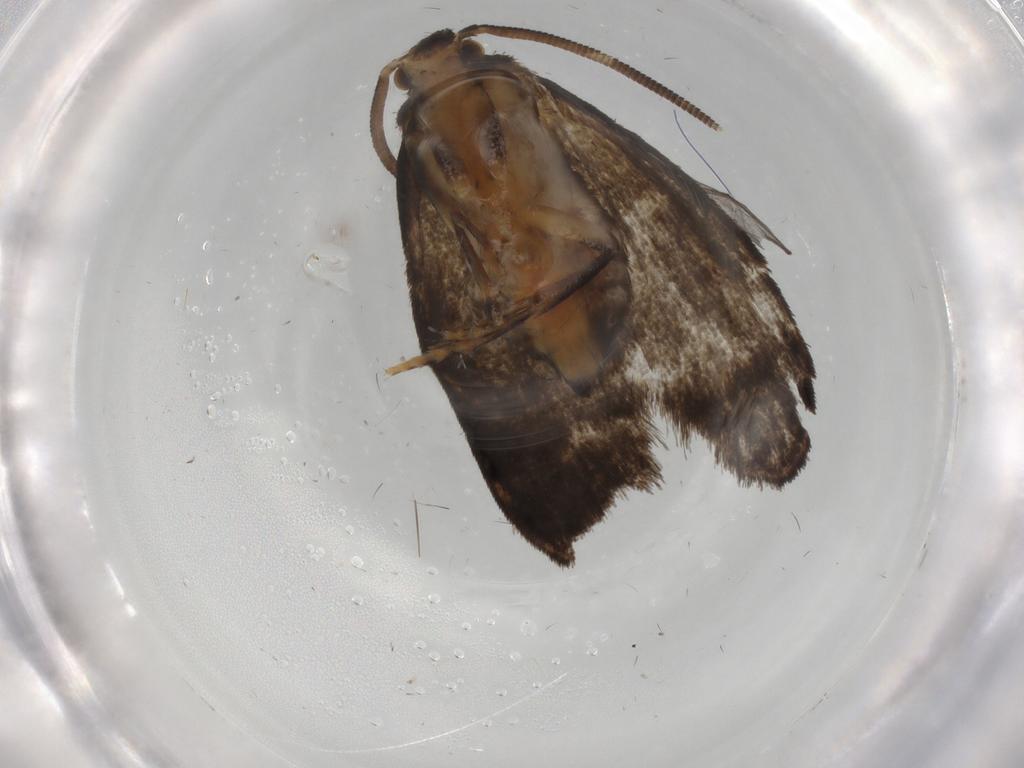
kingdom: Animalia
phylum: Arthropoda
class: Insecta
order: Lepidoptera
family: Dryadaulidae
